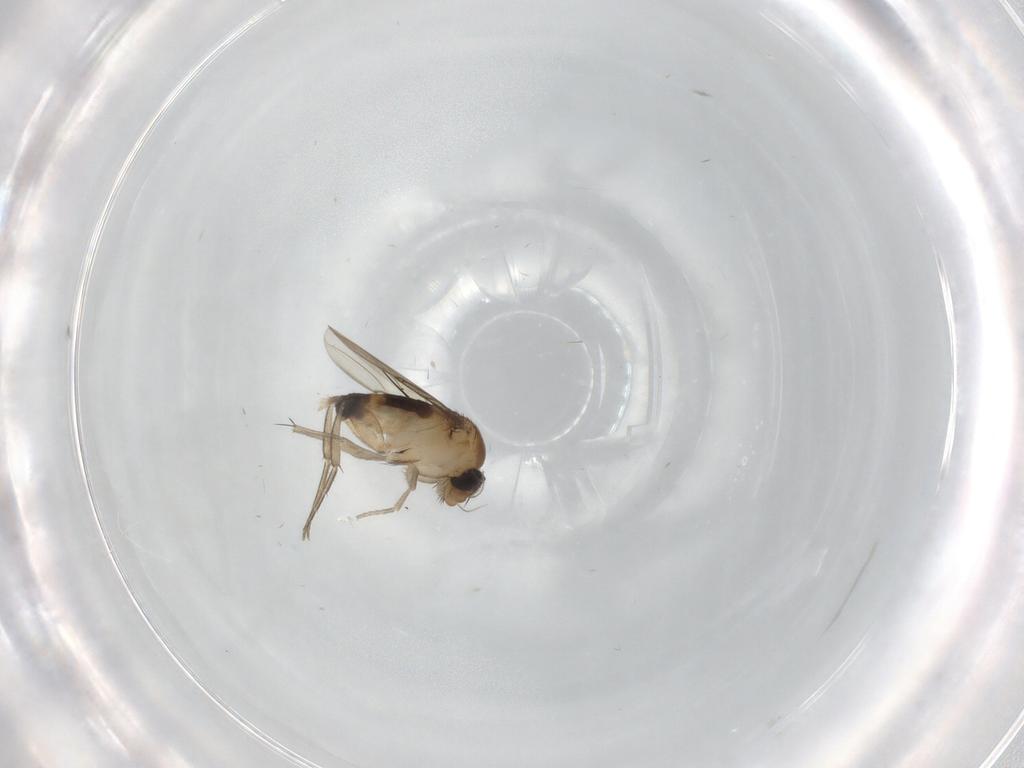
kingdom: Animalia
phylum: Arthropoda
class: Insecta
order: Diptera
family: Phoridae
